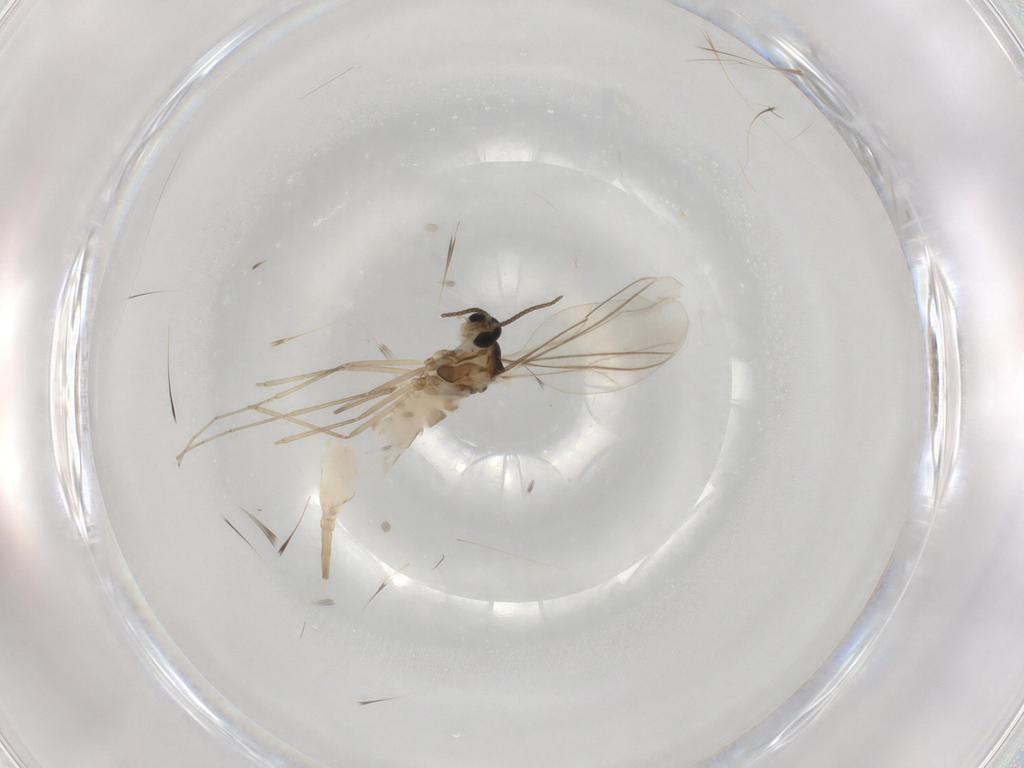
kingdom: Animalia
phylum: Arthropoda
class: Insecta
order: Diptera
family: Cecidomyiidae
